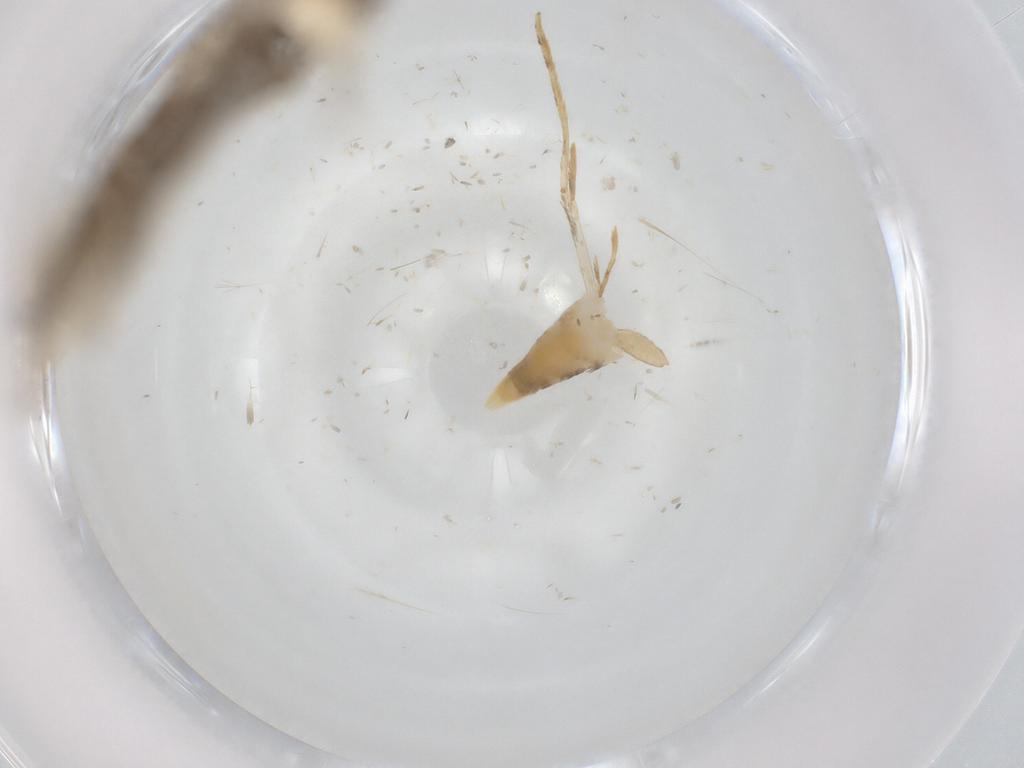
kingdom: Animalia
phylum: Arthropoda
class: Insecta
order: Lepidoptera
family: Tineidae
